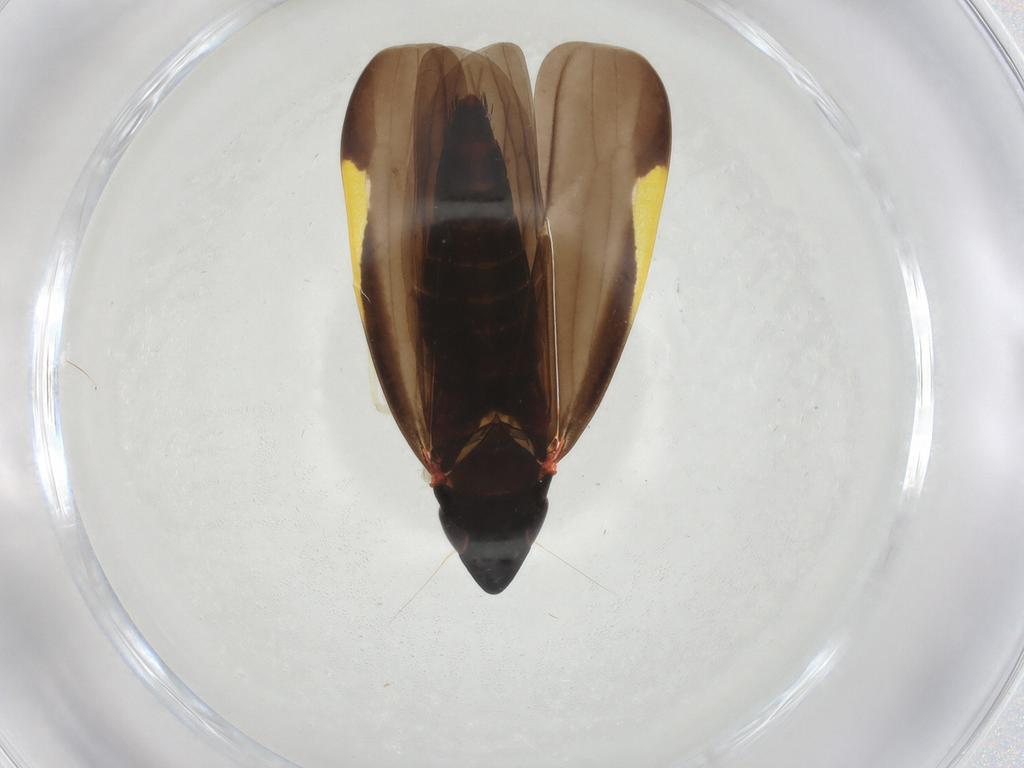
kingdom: Animalia
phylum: Arthropoda
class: Insecta
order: Hemiptera
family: Cicadellidae
